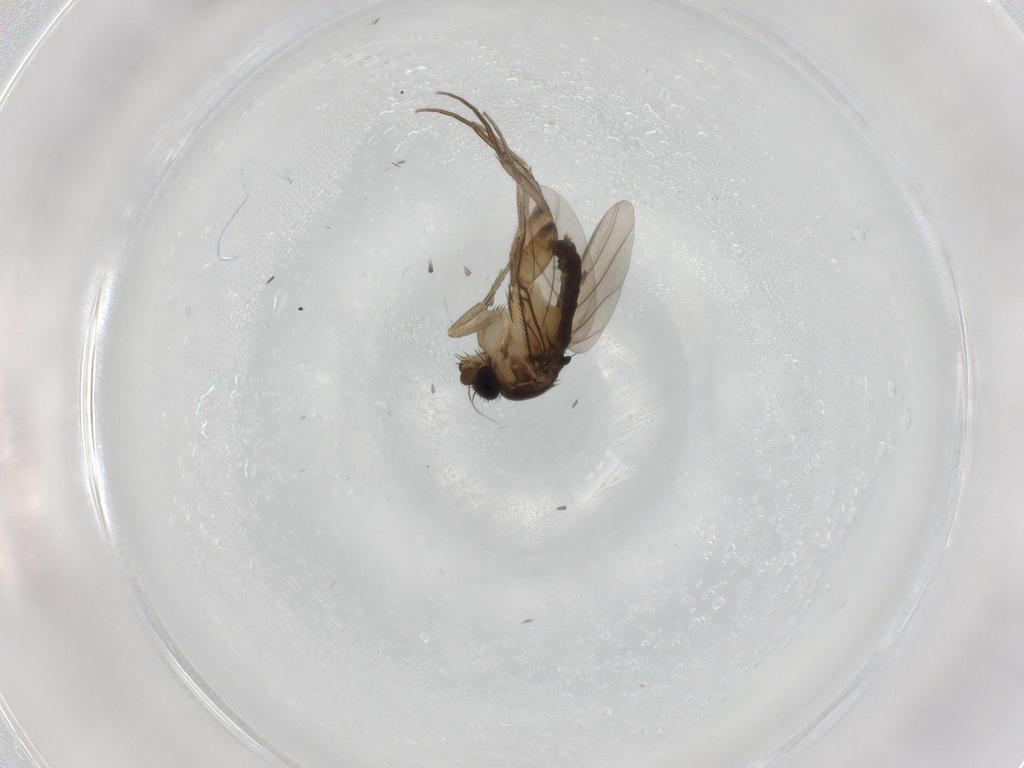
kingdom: Animalia
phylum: Arthropoda
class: Insecta
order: Diptera
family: Phoridae
